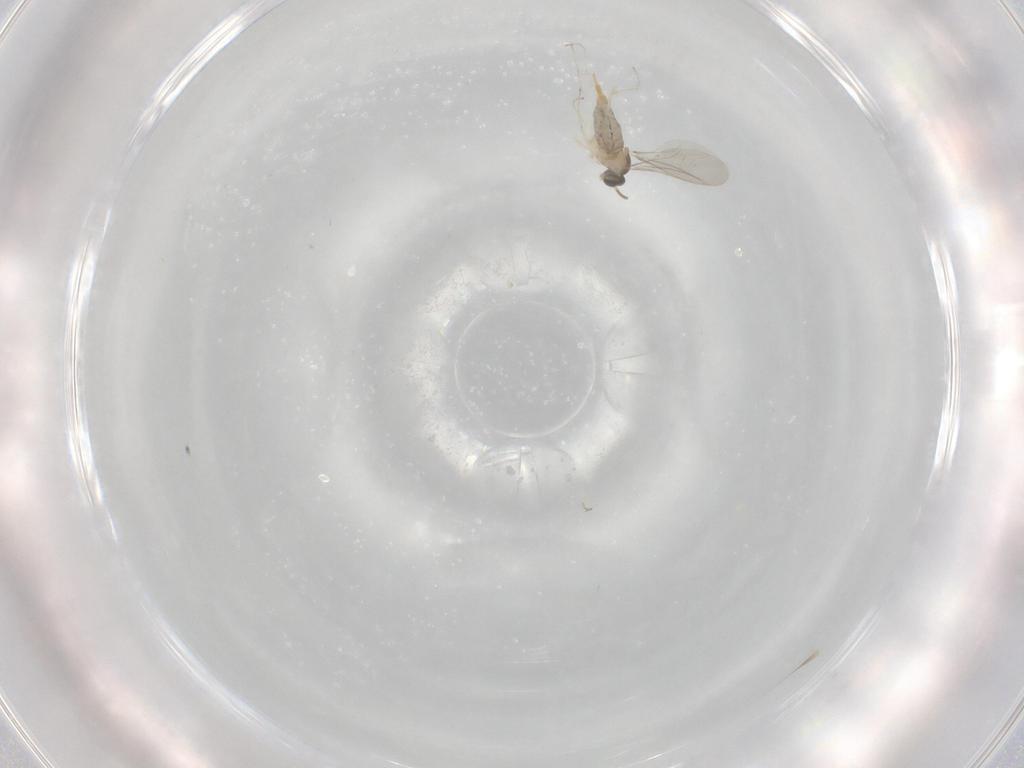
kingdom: Animalia
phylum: Arthropoda
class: Insecta
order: Diptera
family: Cecidomyiidae
